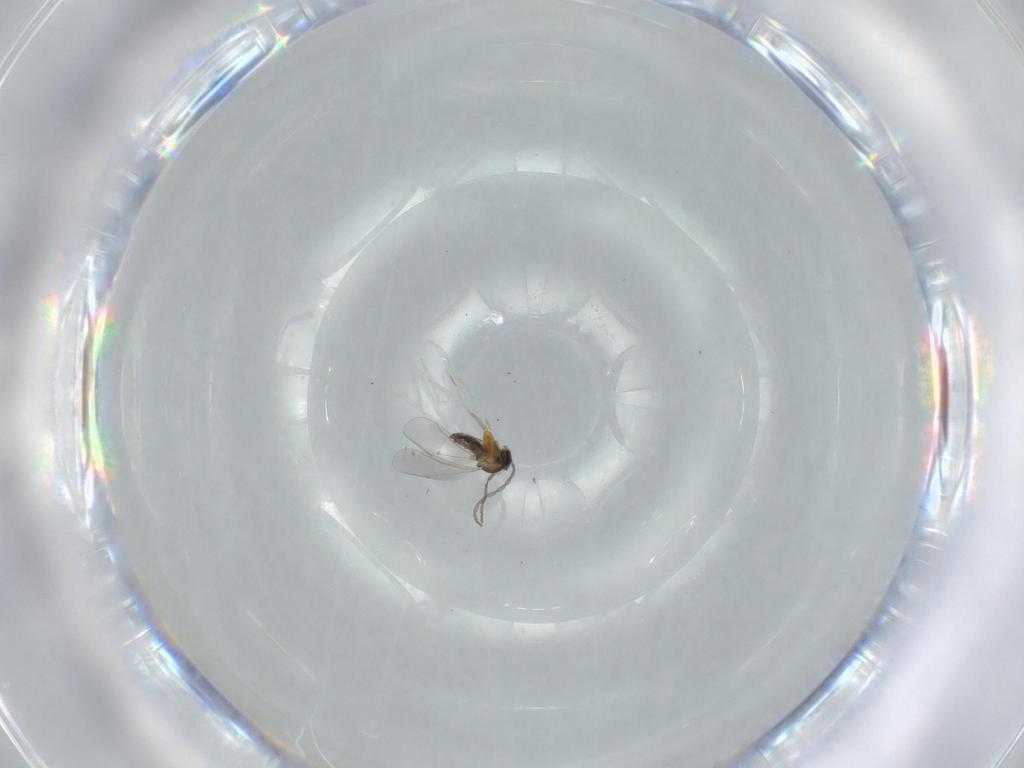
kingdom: Animalia
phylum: Arthropoda
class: Insecta
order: Diptera
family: Cecidomyiidae
